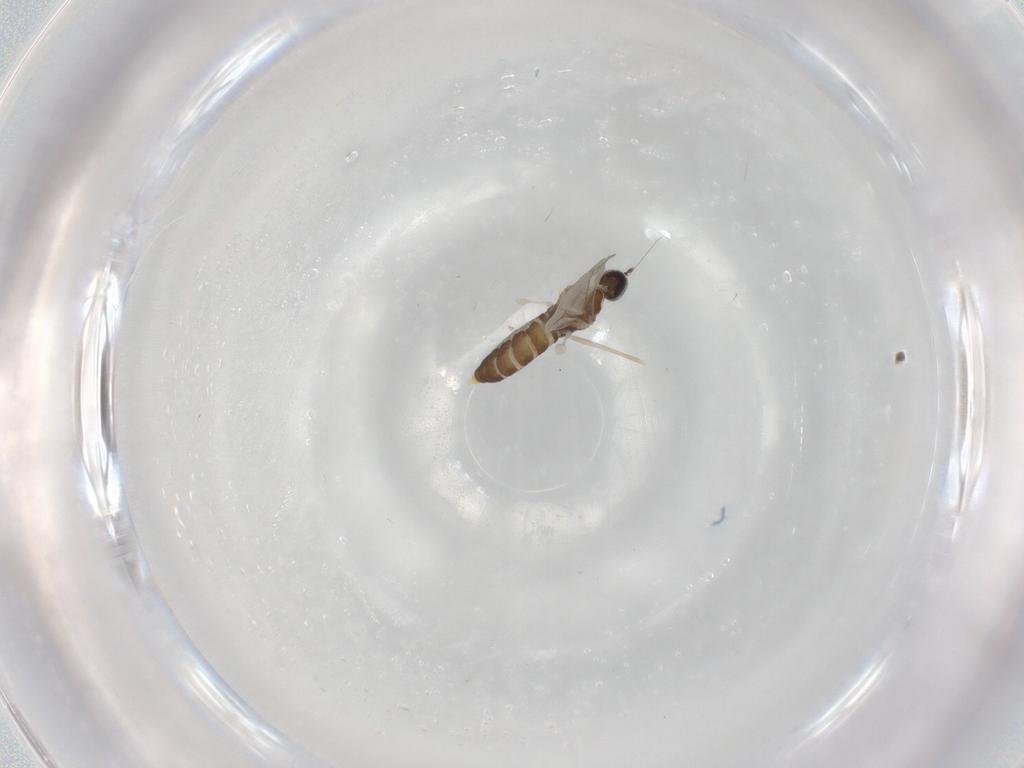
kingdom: Animalia
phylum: Arthropoda
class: Insecta
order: Diptera
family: Cecidomyiidae
